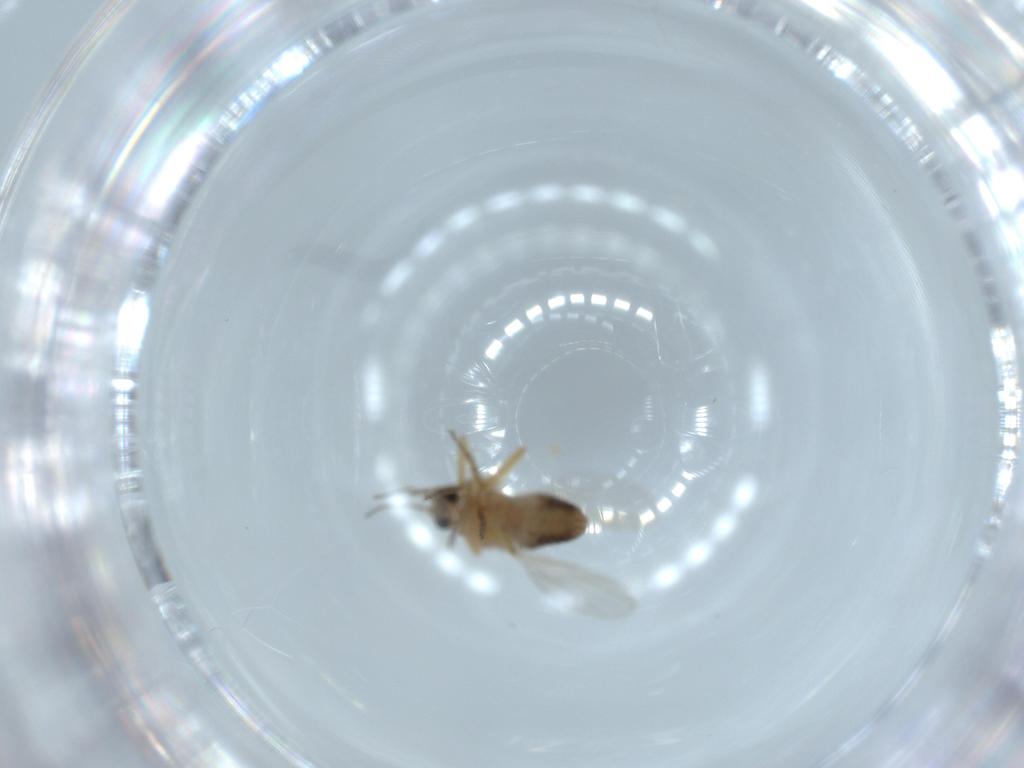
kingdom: Animalia
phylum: Arthropoda
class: Insecta
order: Diptera
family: Ceratopogonidae
